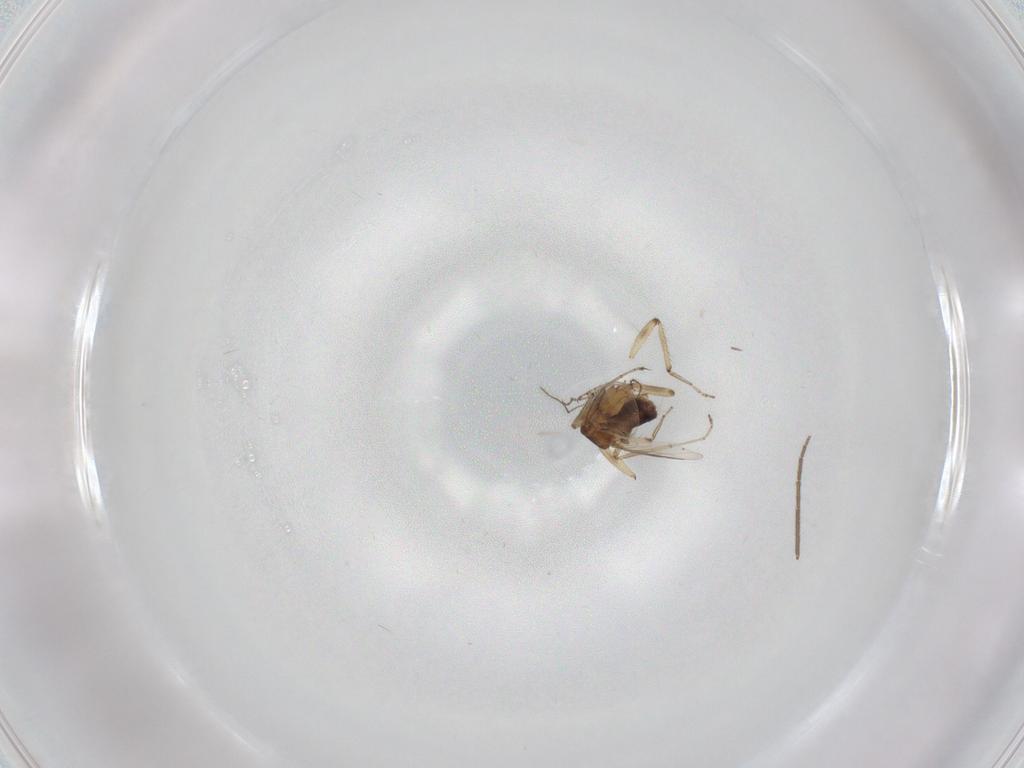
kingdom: Animalia
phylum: Arthropoda
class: Insecta
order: Diptera
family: Ceratopogonidae
